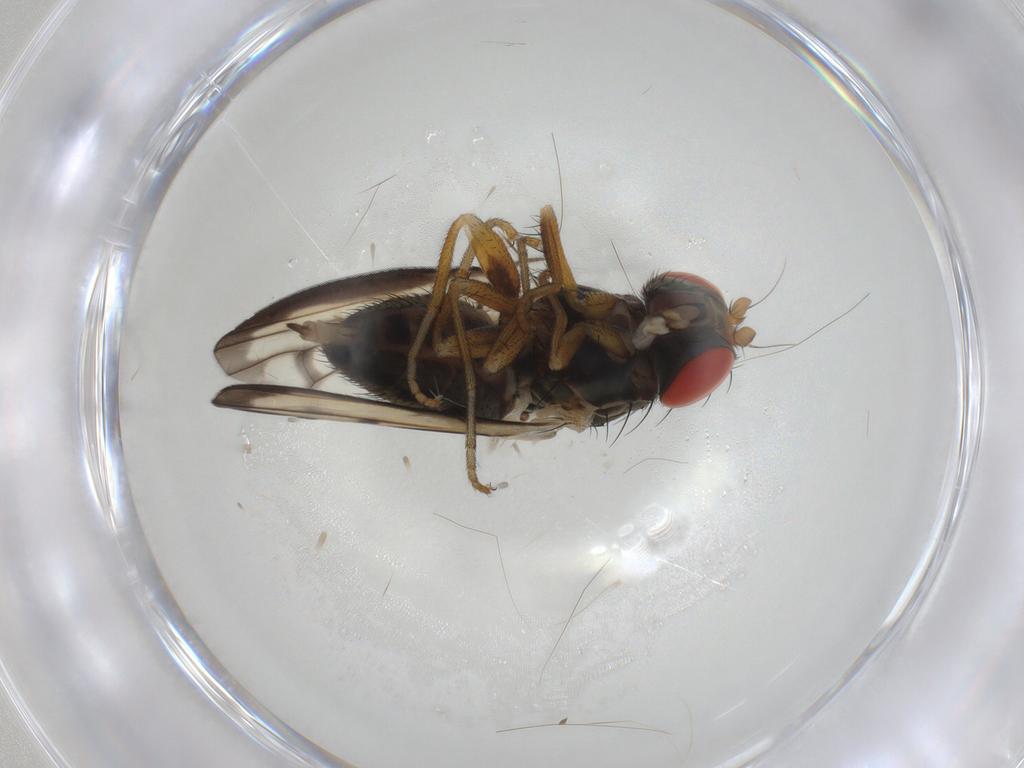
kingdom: Animalia
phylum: Arthropoda
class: Insecta
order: Diptera
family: Chamaemyiidae
